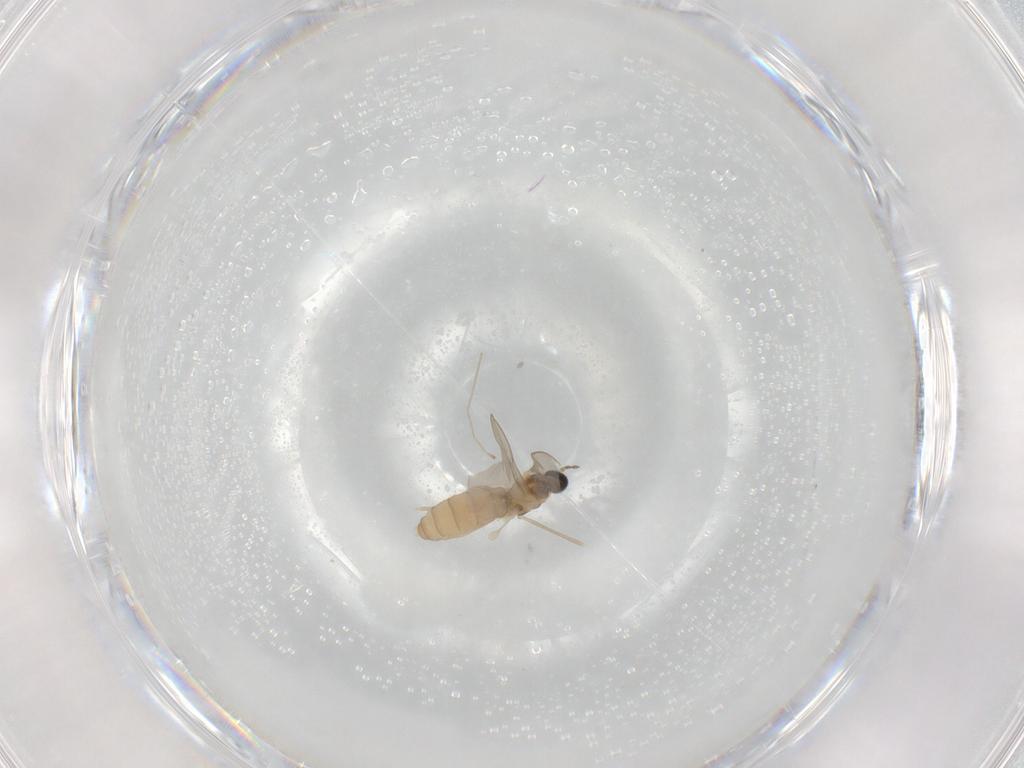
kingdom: Animalia
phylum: Arthropoda
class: Insecta
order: Diptera
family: Cecidomyiidae
